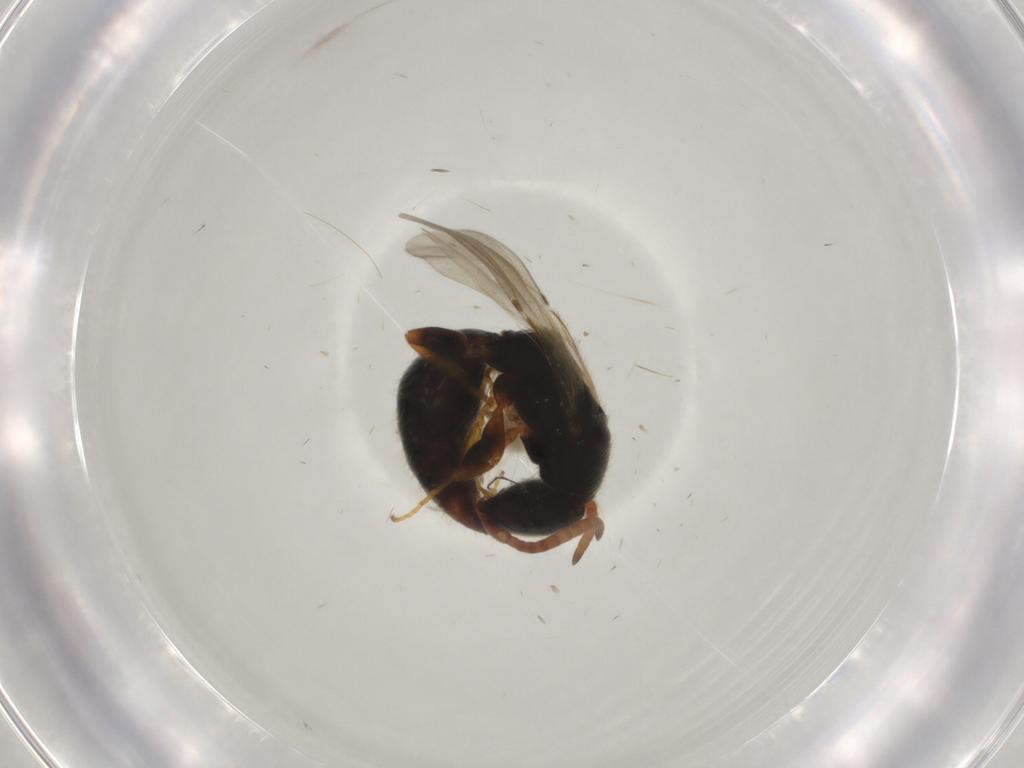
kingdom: Animalia
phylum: Arthropoda
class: Insecta
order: Hymenoptera
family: Bethylidae
